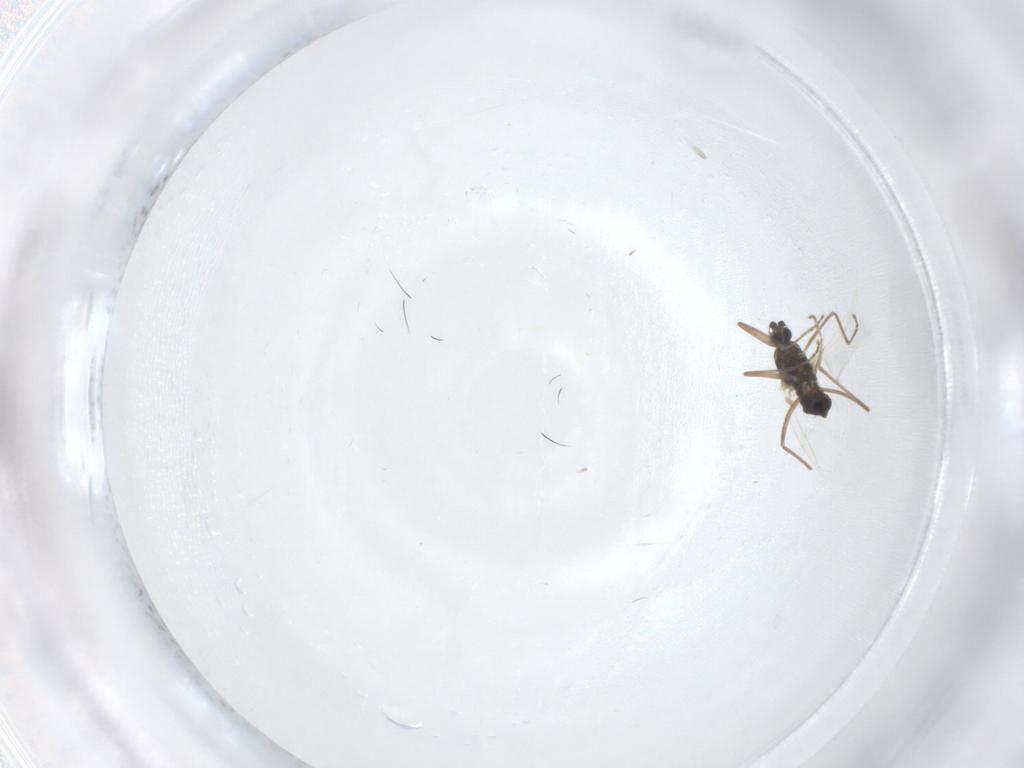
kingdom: Animalia
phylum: Arthropoda
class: Insecta
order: Diptera
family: Cecidomyiidae
